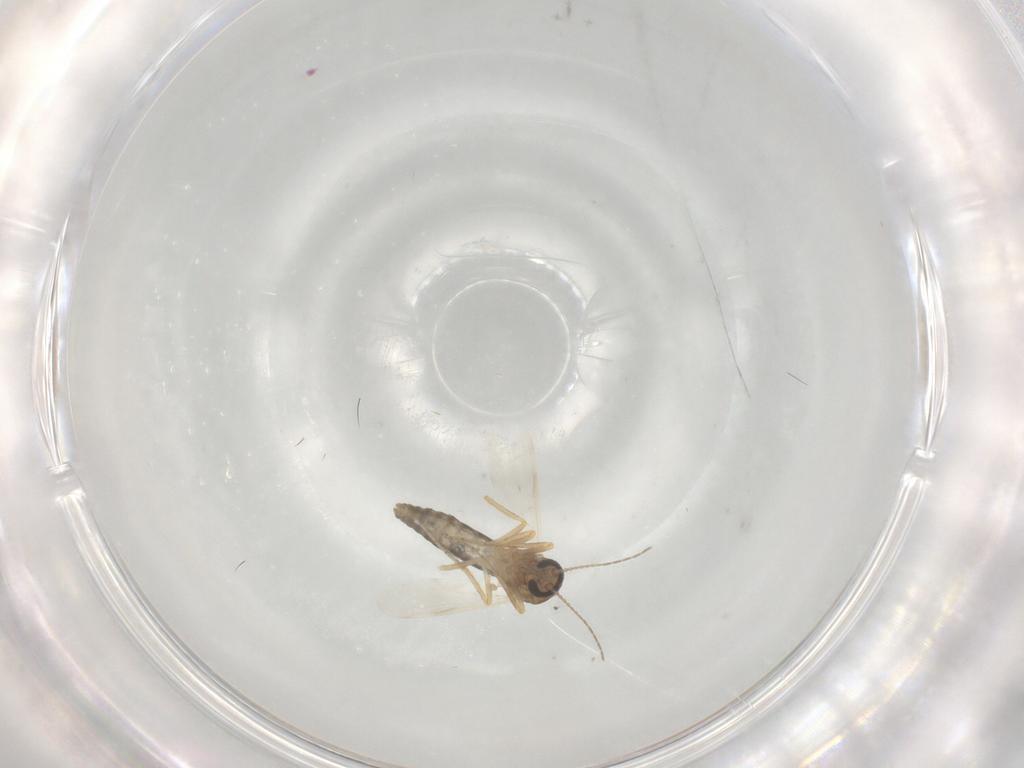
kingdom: Animalia
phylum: Arthropoda
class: Insecta
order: Diptera
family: Ceratopogonidae
